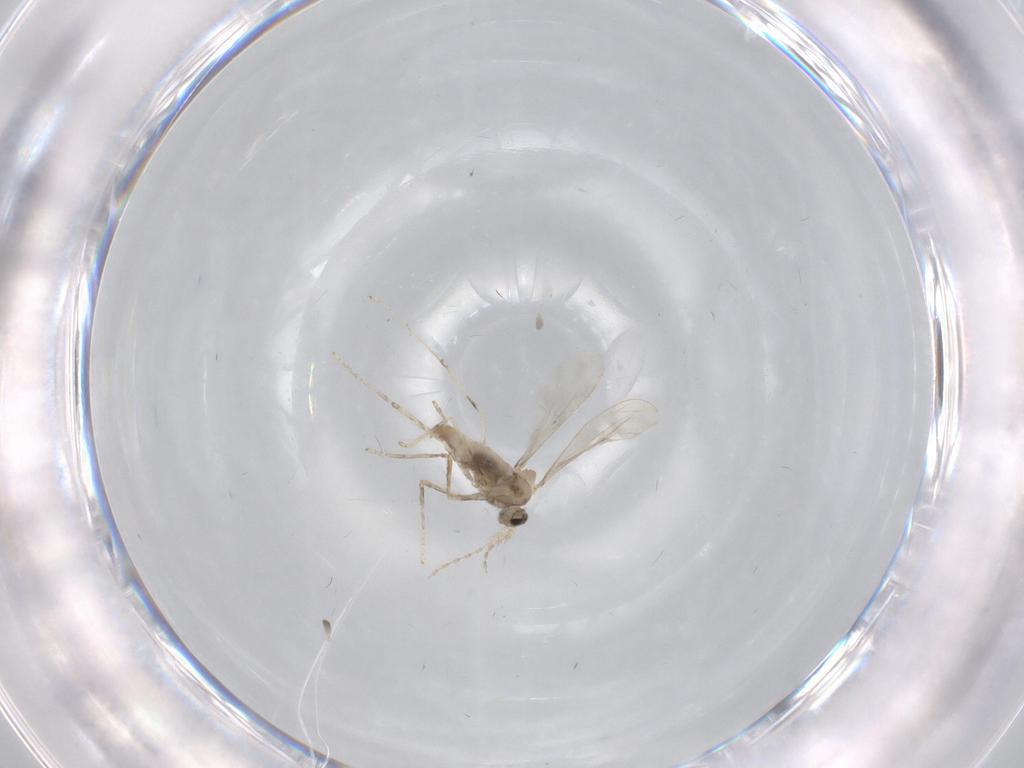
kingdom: Animalia
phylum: Arthropoda
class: Insecta
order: Diptera
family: Cecidomyiidae
